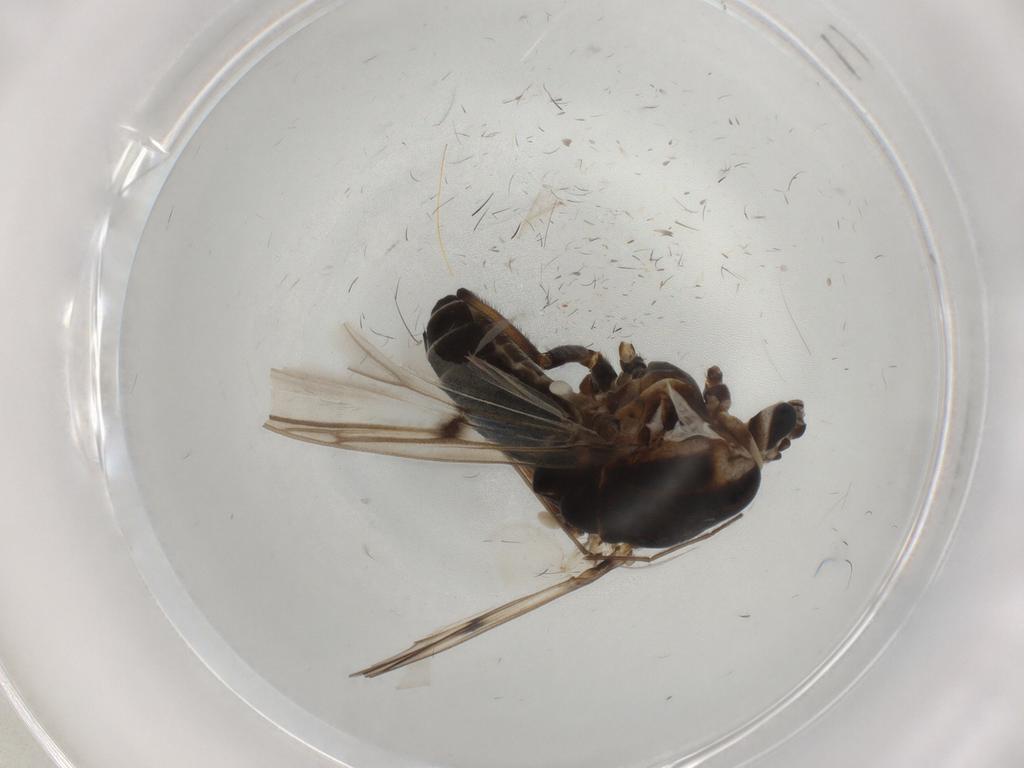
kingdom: Animalia
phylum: Arthropoda
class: Insecta
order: Diptera
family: Chironomidae
